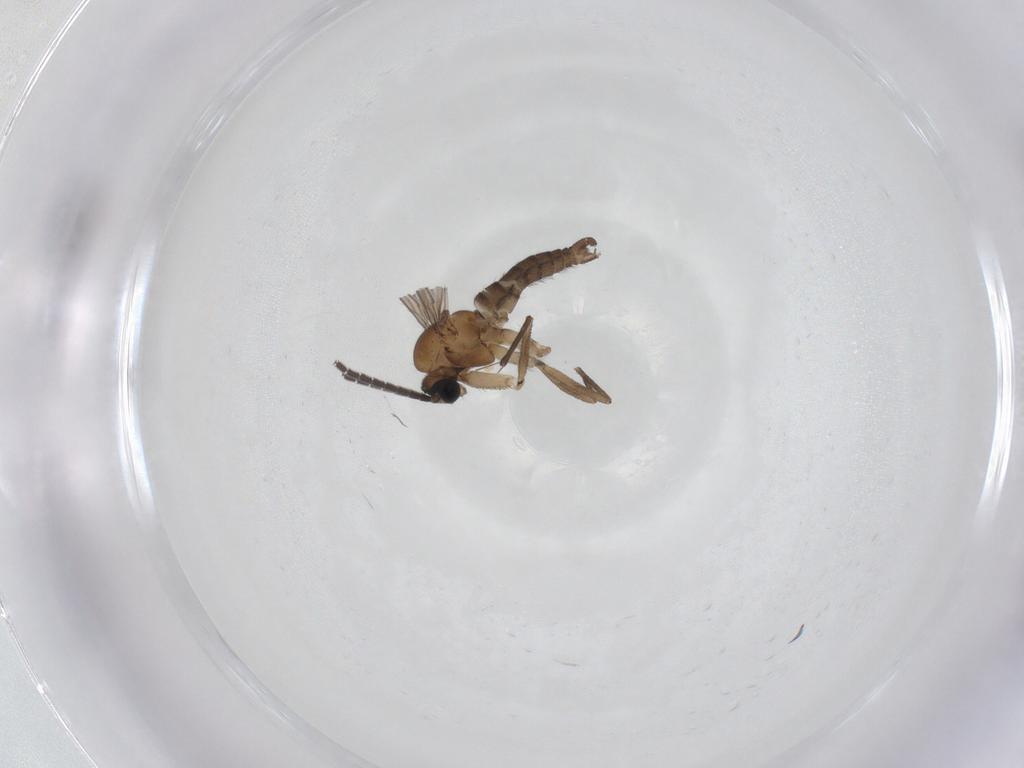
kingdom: Animalia
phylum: Arthropoda
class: Insecta
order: Diptera
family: Sciaridae
